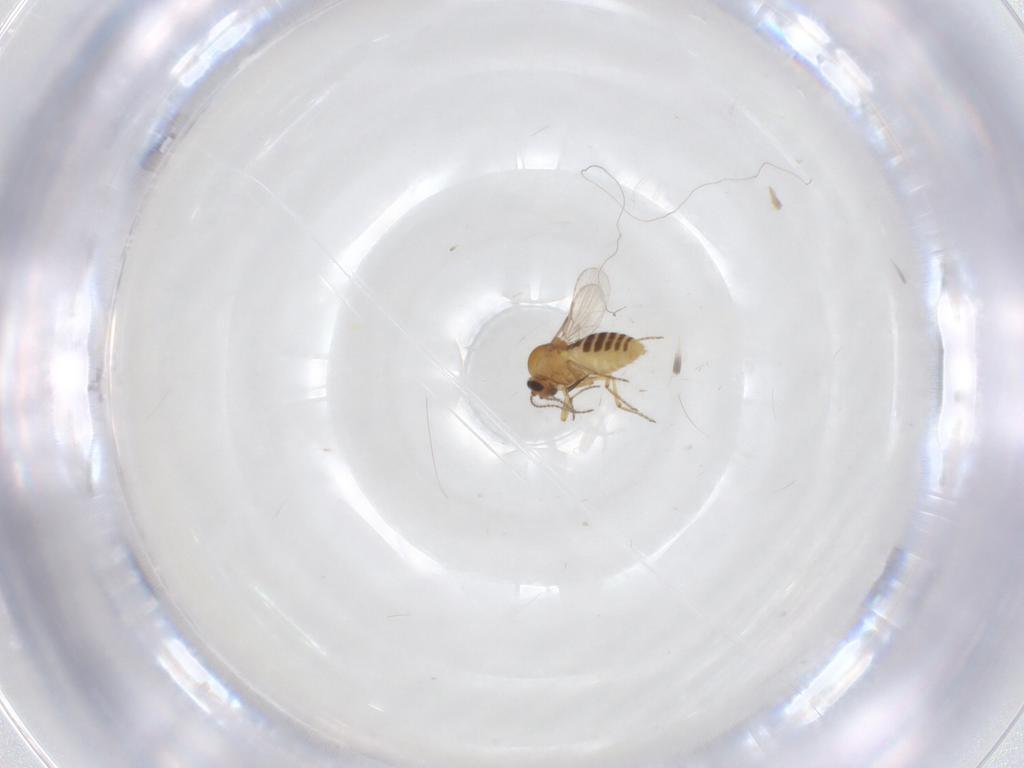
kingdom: Animalia
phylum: Arthropoda
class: Insecta
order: Diptera
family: Ceratopogonidae
